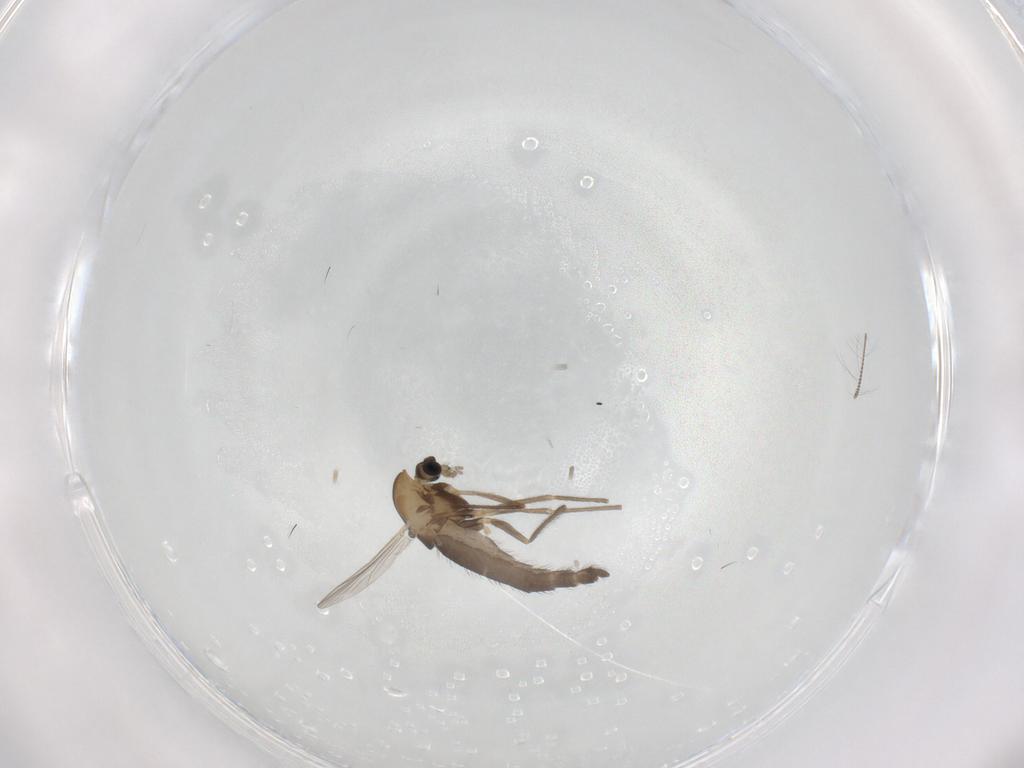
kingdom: Animalia
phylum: Arthropoda
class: Insecta
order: Diptera
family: Chironomidae
